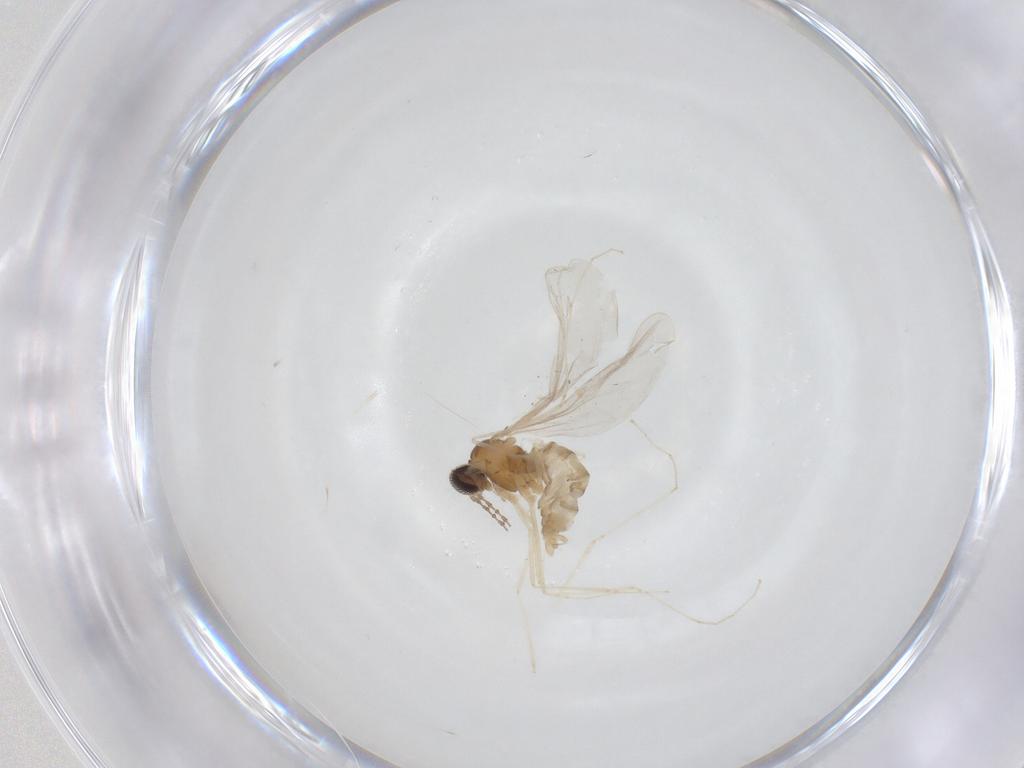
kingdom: Animalia
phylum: Arthropoda
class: Insecta
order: Diptera
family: Cecidomyiidae
